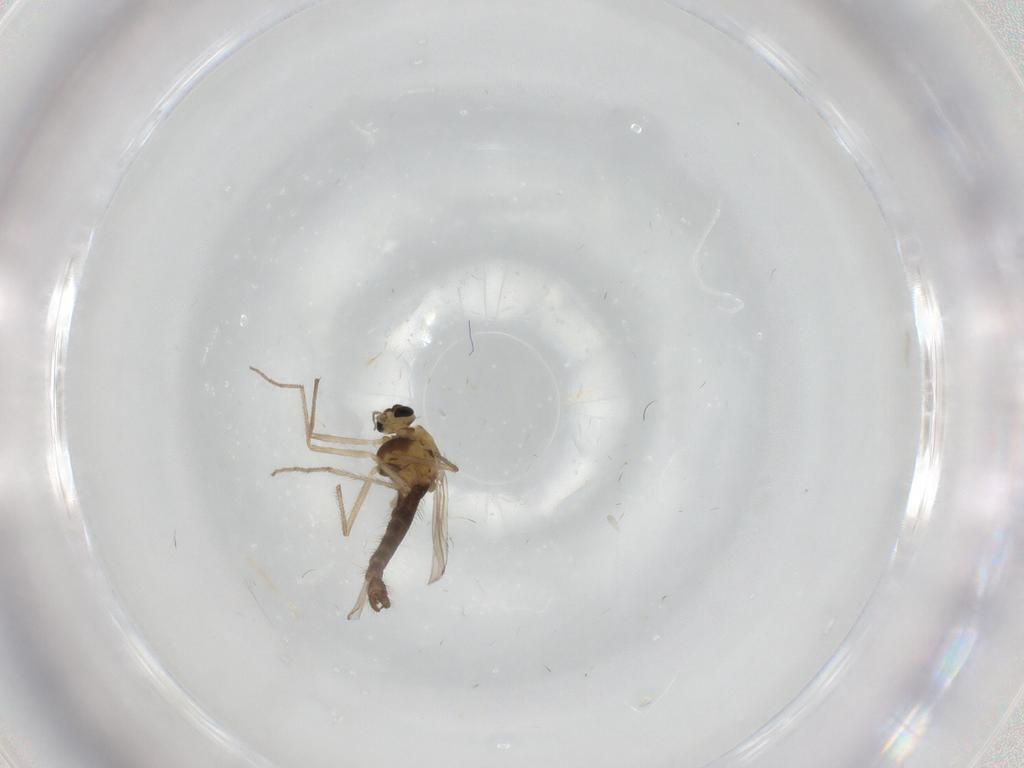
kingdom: Animalia
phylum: Arthropoda
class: Insecta
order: Diptera
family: Chironomidae
